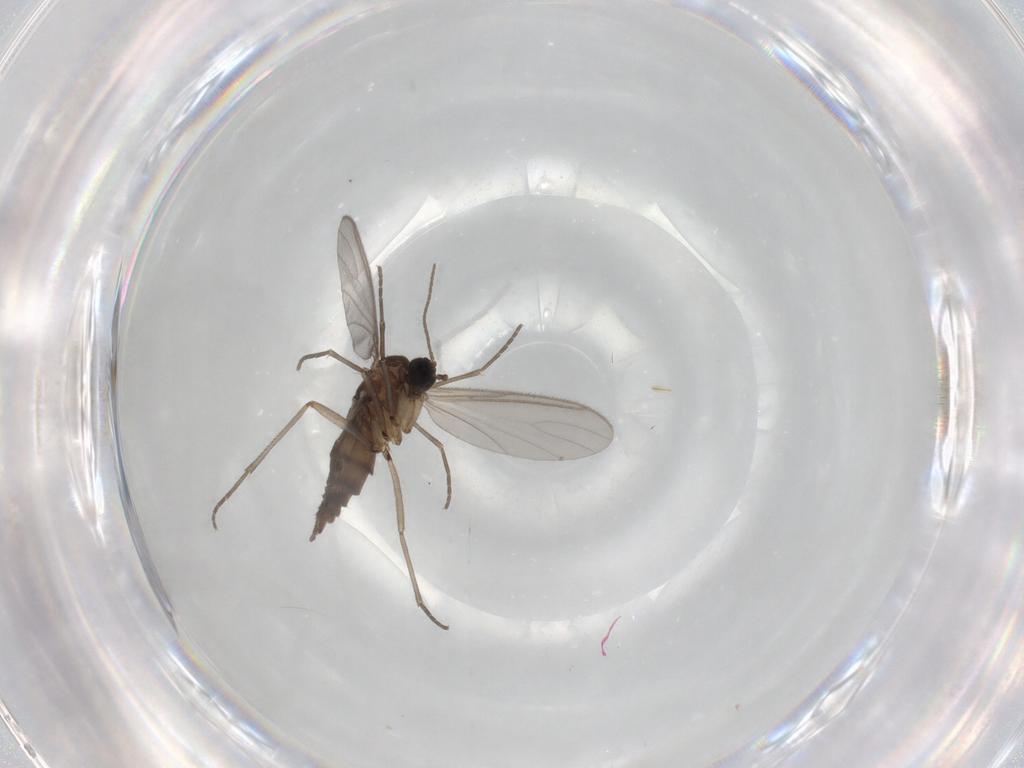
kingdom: Animalia
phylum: Arthropoda
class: Insecta
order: Diptera
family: Sciaridae
